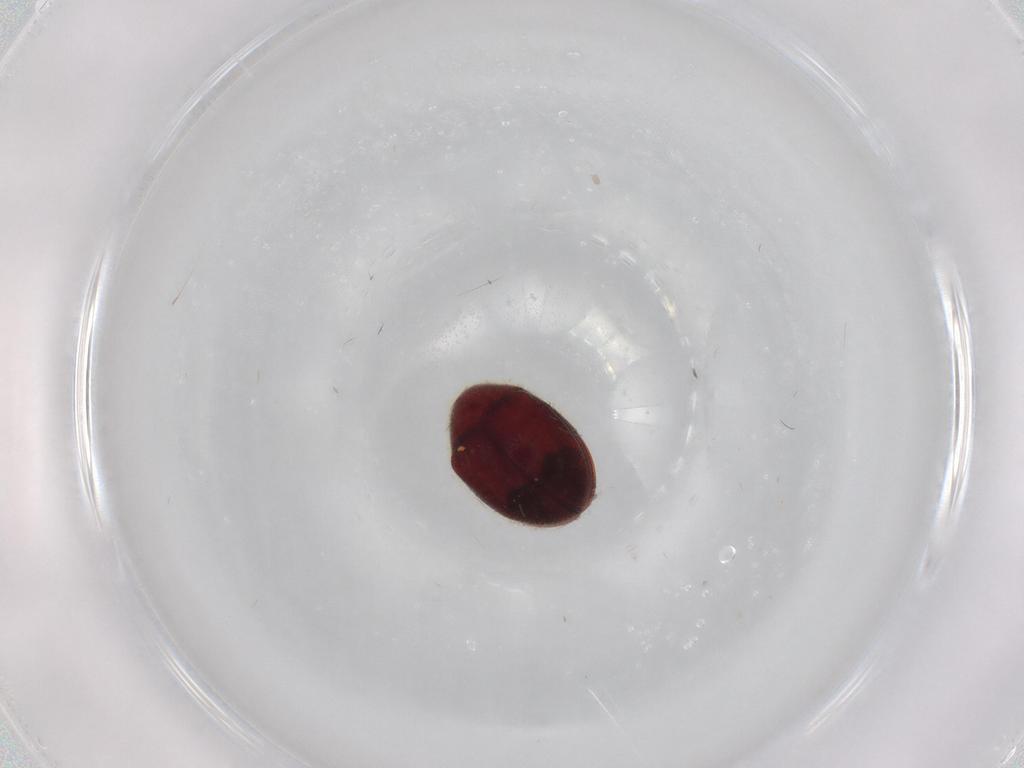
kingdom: Animalia
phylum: Arthropoda
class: Insecta
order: Coleoptera
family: Ptinidae
